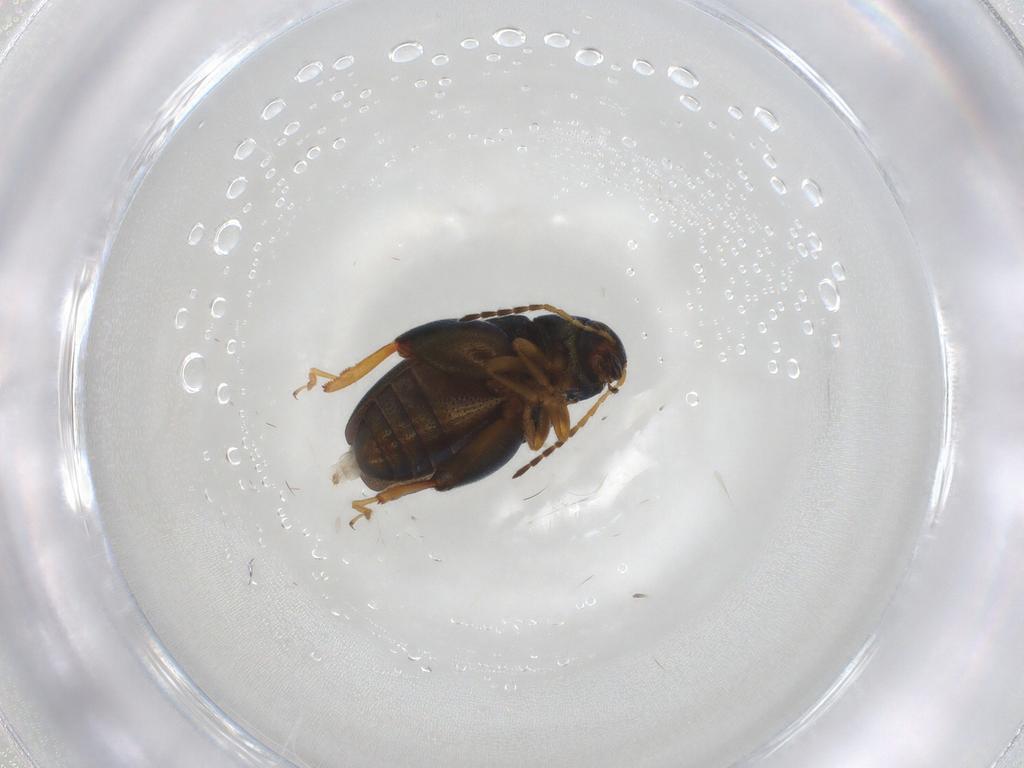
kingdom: Animalia
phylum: Arthropoda
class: Insecta
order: Coleoptera
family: Chrysomelidae
